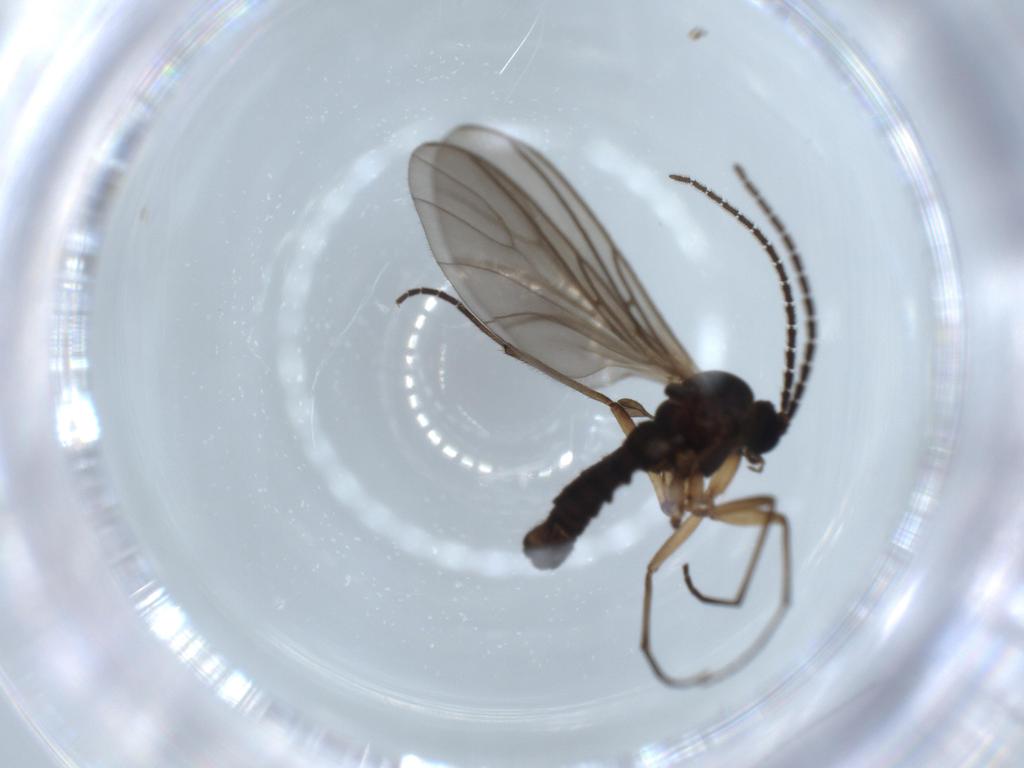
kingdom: Animalia
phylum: Arthropoda
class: Insecta
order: Diptera
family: Sciaridae
